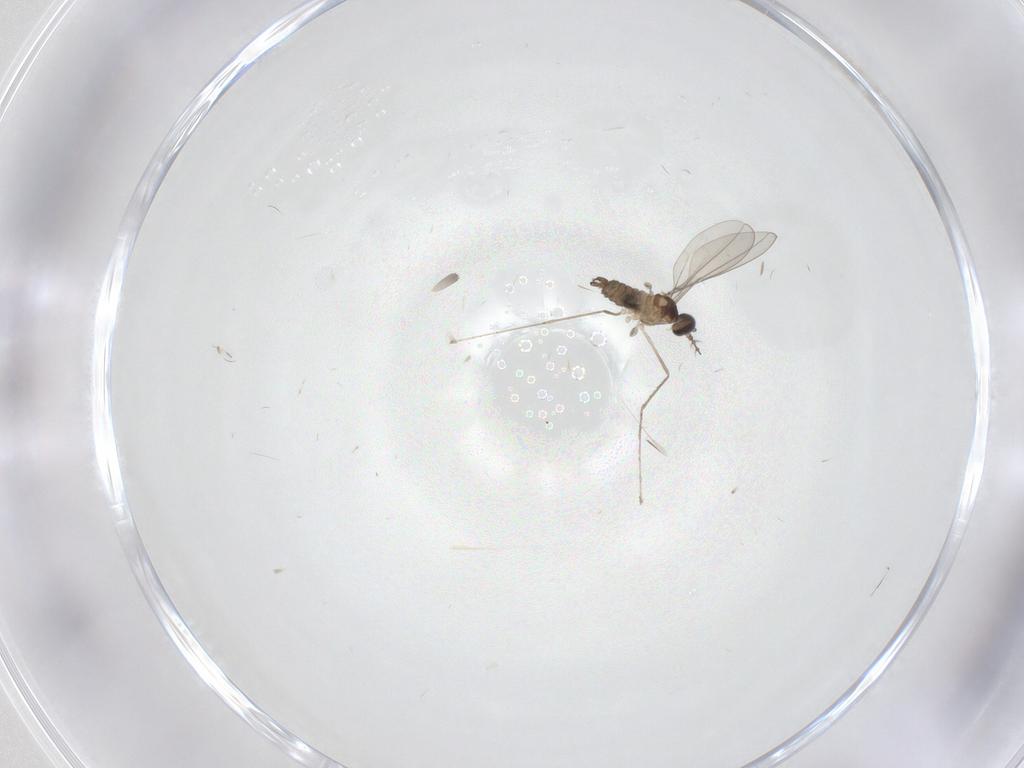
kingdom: Animalia
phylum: Arthropoda
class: Insecta
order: Diptera
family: Cecidomyiidae
